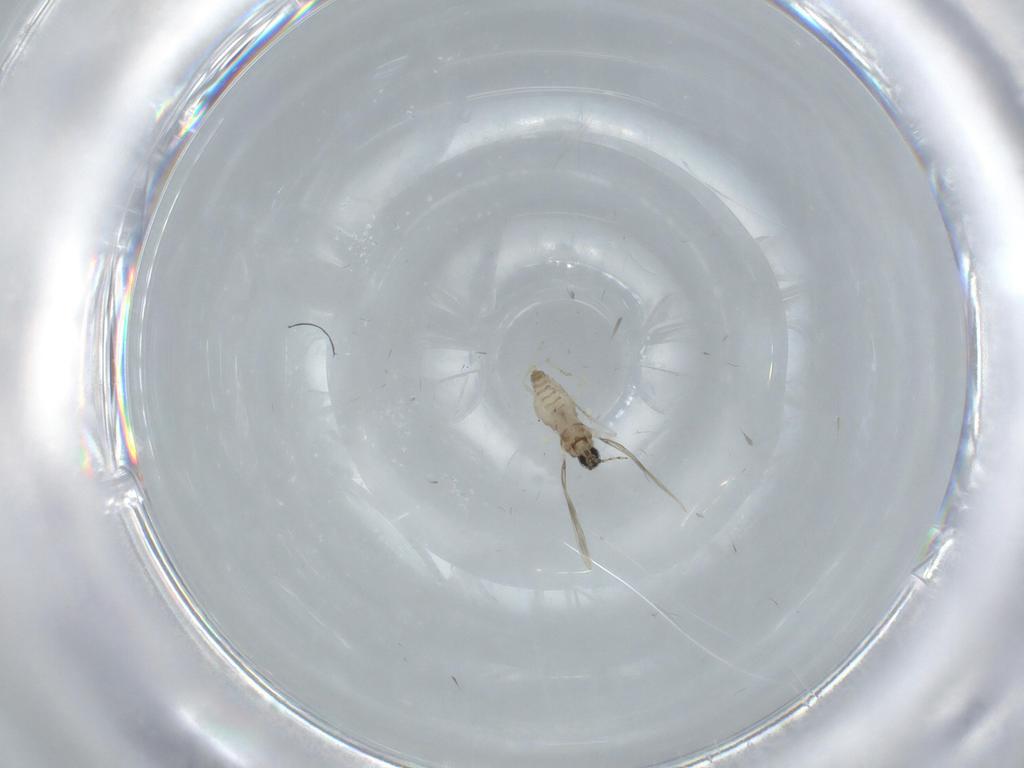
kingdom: Animalia
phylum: Arthropoda
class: Insecta
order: Diptera
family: Cecidomyiidae
